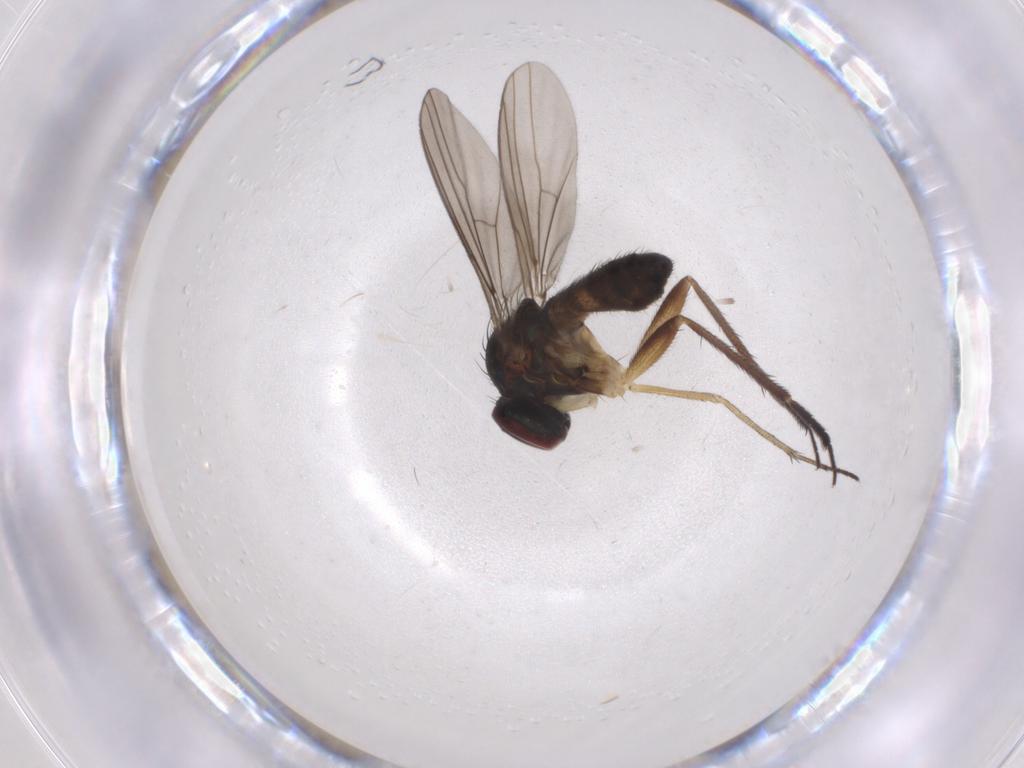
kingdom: Animalia
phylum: Arthropoda
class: Insecta
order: Diptera
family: Dolichopodidae
